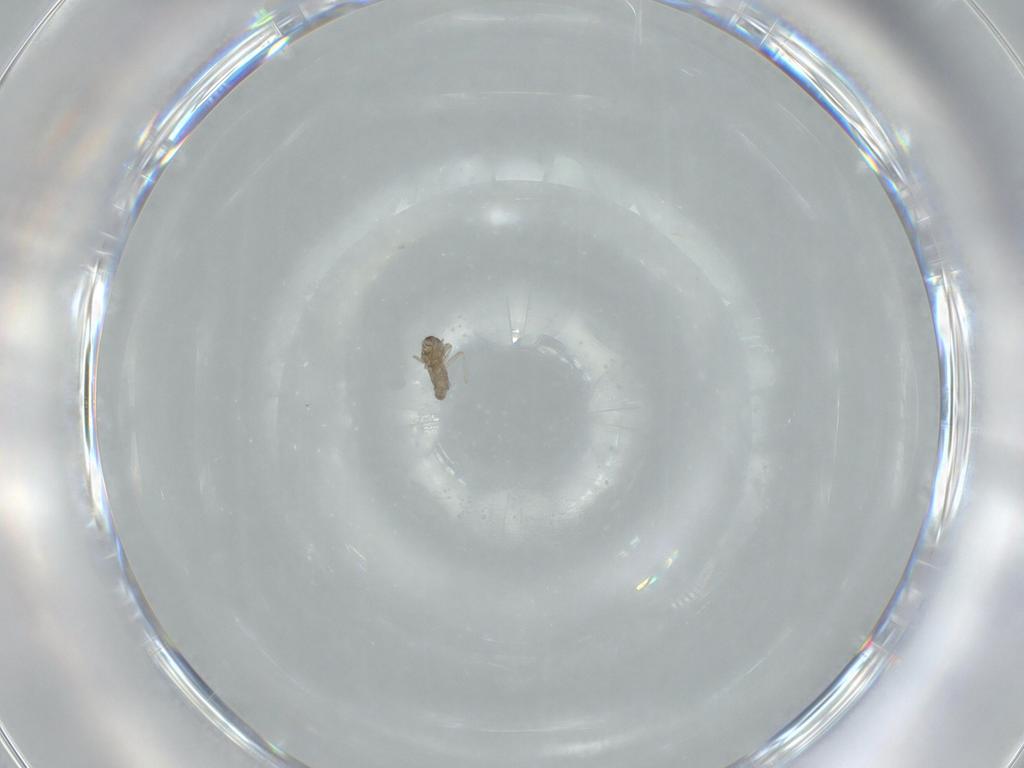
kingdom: Animalia
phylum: Arthropoda
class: Insecta
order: Diptera
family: Cecidomyiidae
